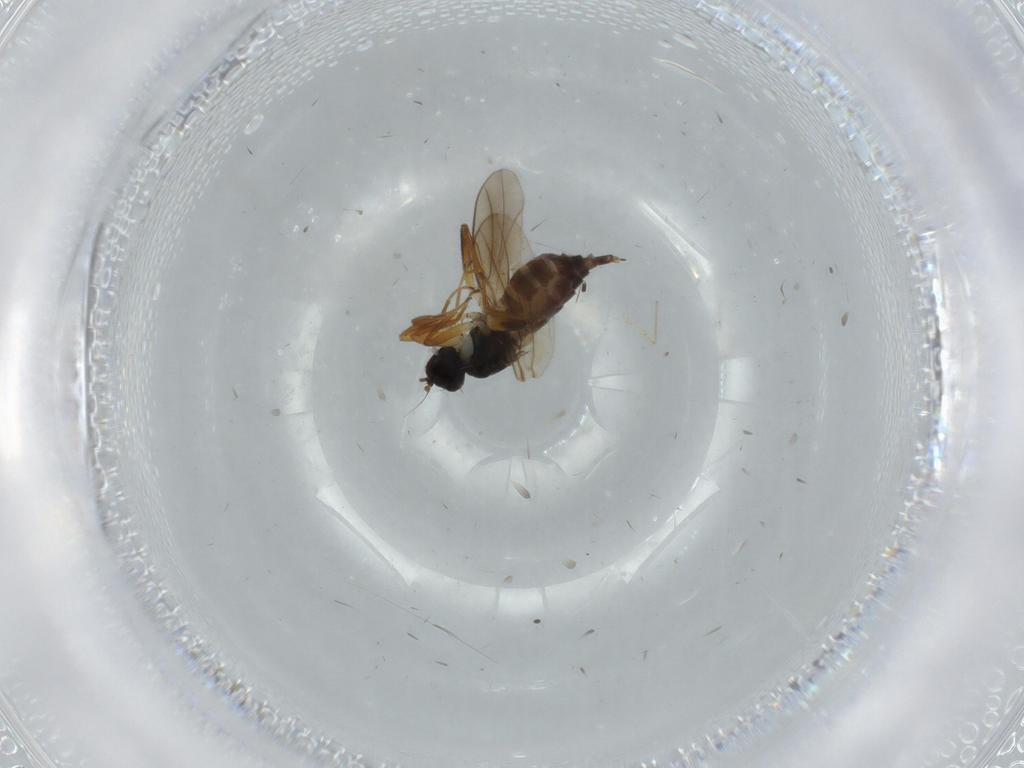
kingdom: Animalia
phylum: Arthropoda
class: Insecta
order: Diptera
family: Hybotidae
